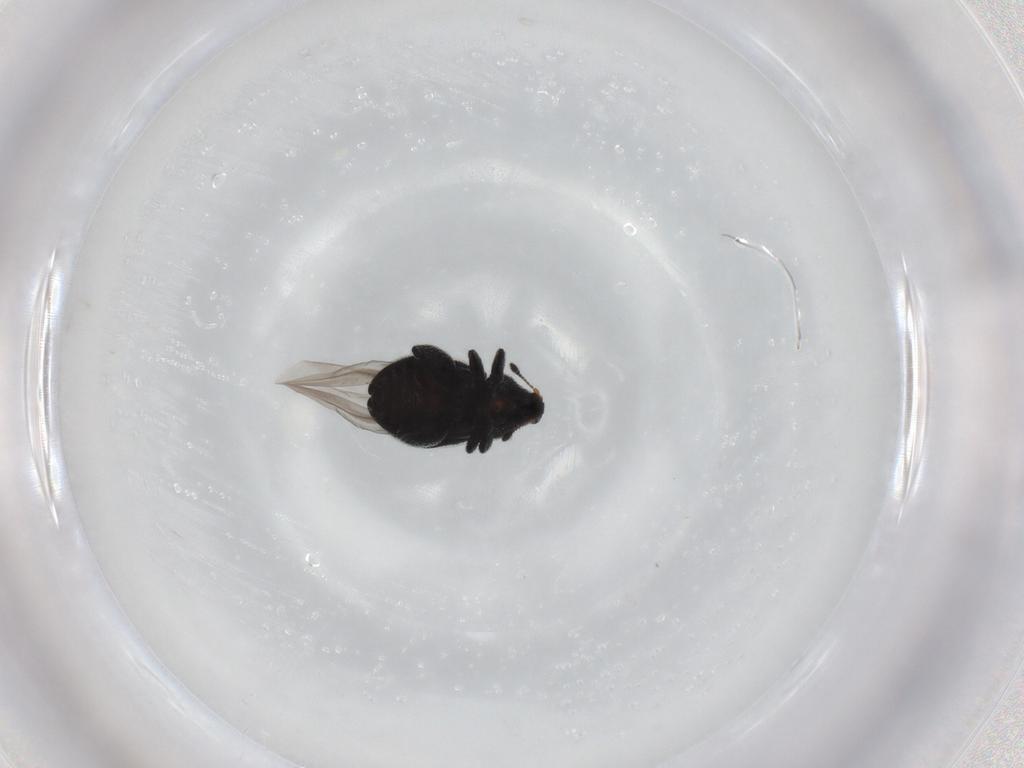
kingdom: Animalia
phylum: Arthropoda
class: Insecta
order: Coleoptera
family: Curculionidae
